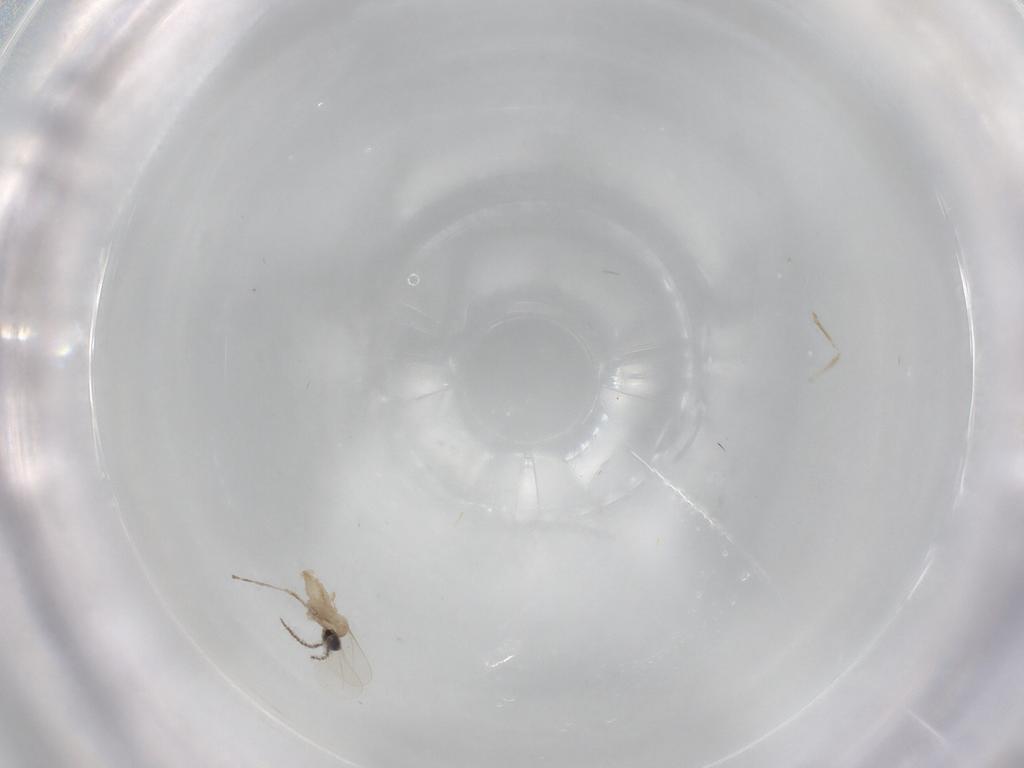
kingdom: Animalia
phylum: Arthropoda
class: Insecta
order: Diptera
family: Cecidomyiidae
